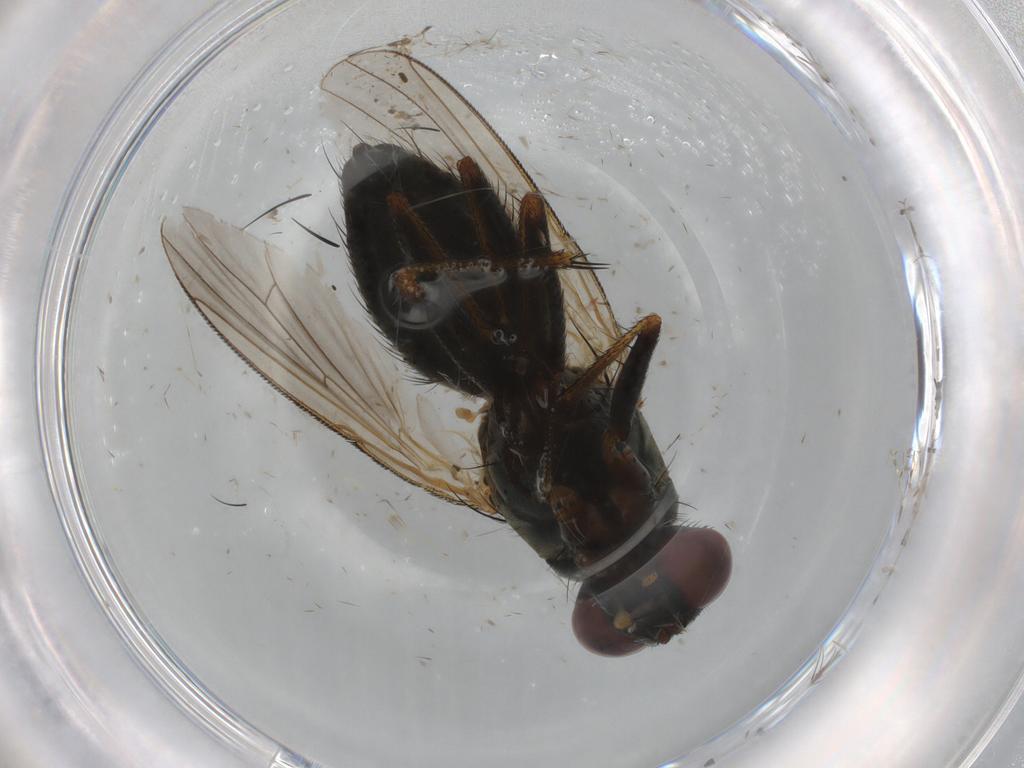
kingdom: Animalia
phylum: Arthropoda
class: Insecta
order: Diptera
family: Muscidae
